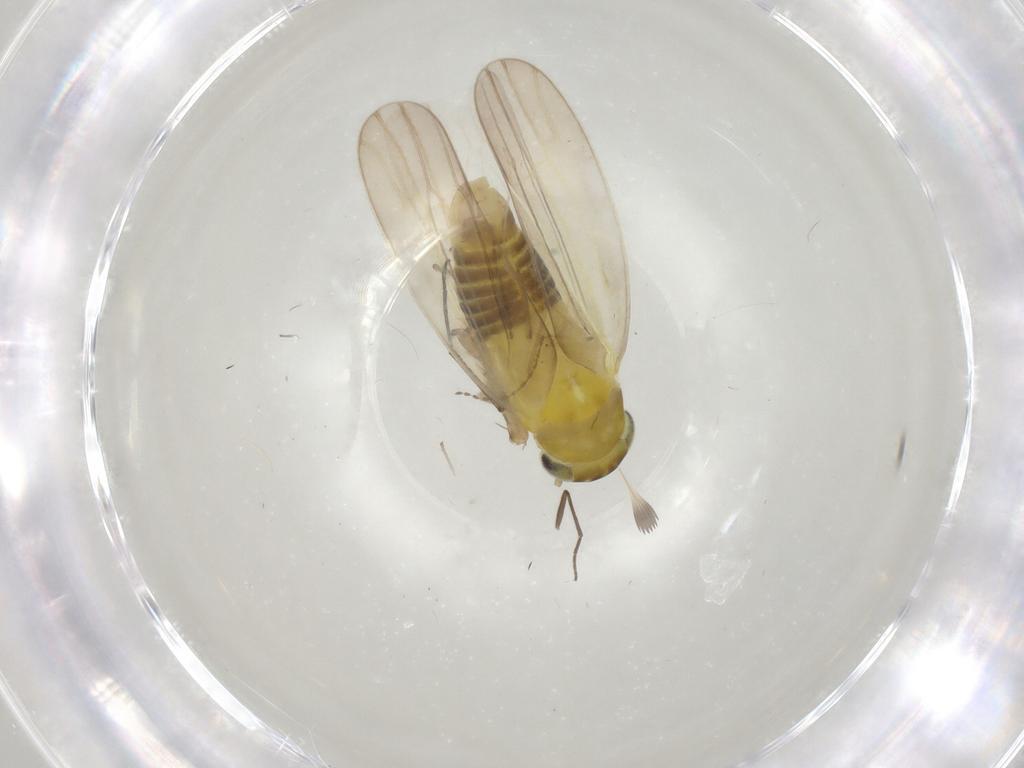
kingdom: Animalia
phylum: Arthropoda
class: Insecta
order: Hemiptera
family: Cicadellidae
